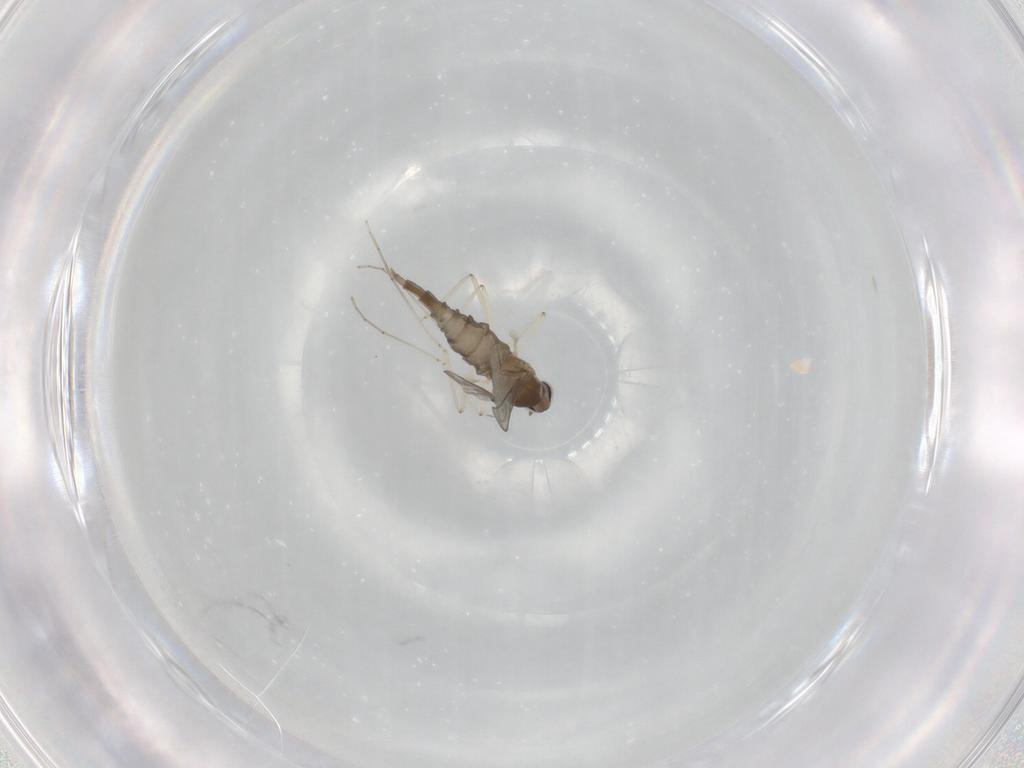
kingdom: Animalia
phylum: Arthropoda
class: Insecta
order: Diptera
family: Cecidomyiidae
